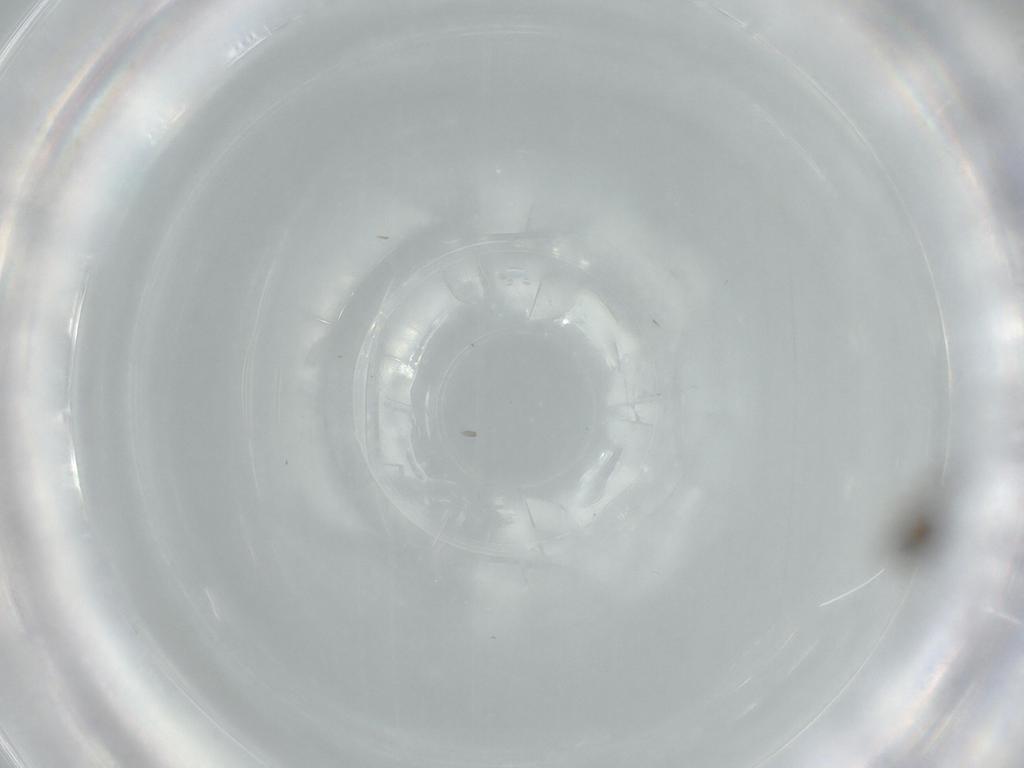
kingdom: Animalia
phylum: Arthropoda
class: Insecta
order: Diptera
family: Cecidomyiidae
